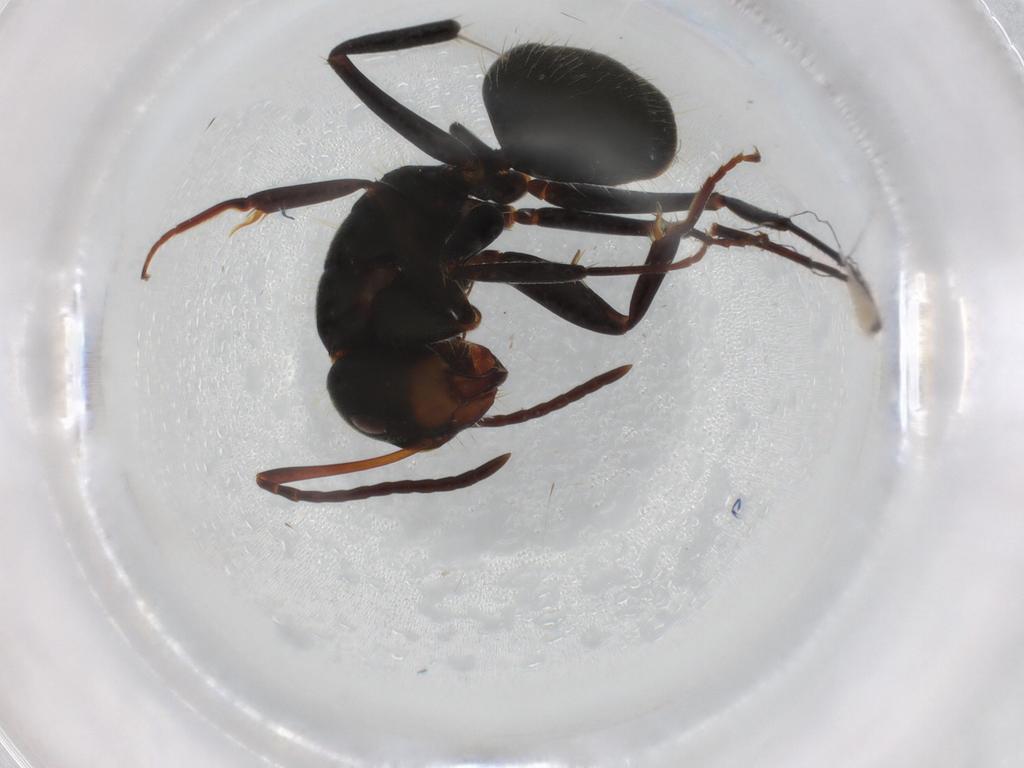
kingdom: Animalia
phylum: Arthropoda
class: Insecta
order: Hymenoptera
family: Formicidae
